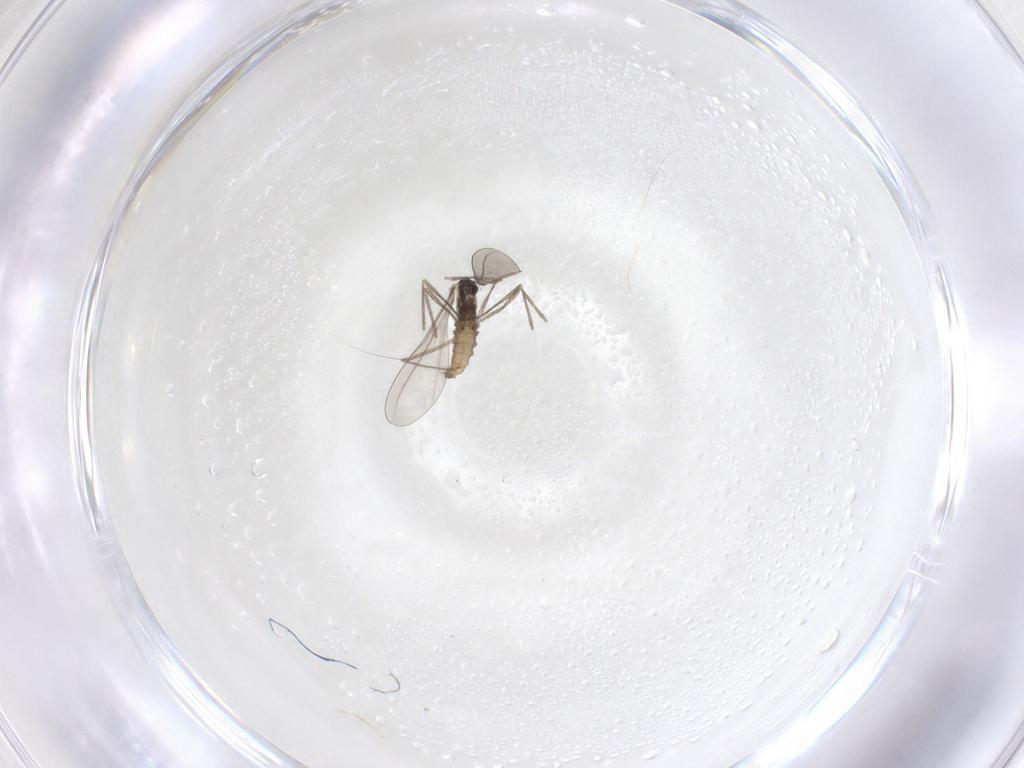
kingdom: Animalia
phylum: Arthropoda
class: Insecta
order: Diptera
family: Cecidomyiidae
